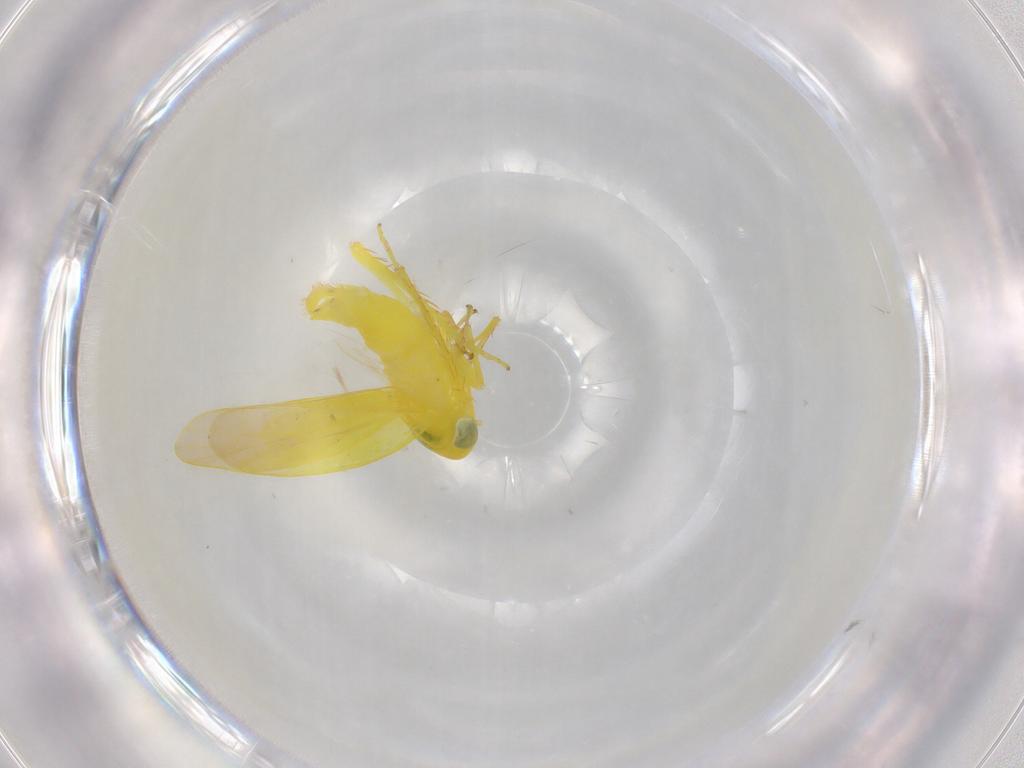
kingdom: Animalia
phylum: Arthropoda
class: Insecta
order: Hemiptera
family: Cicadellidae
